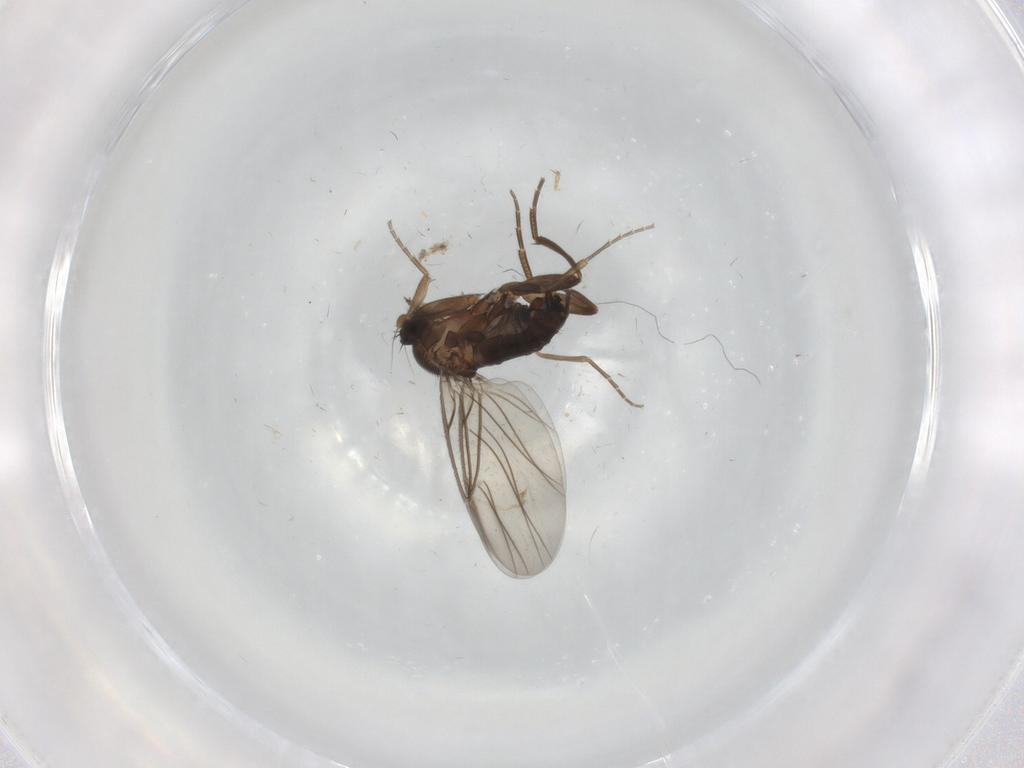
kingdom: Animalia
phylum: Arthropoda
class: Insecta
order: Diptera
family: Chironomidae
